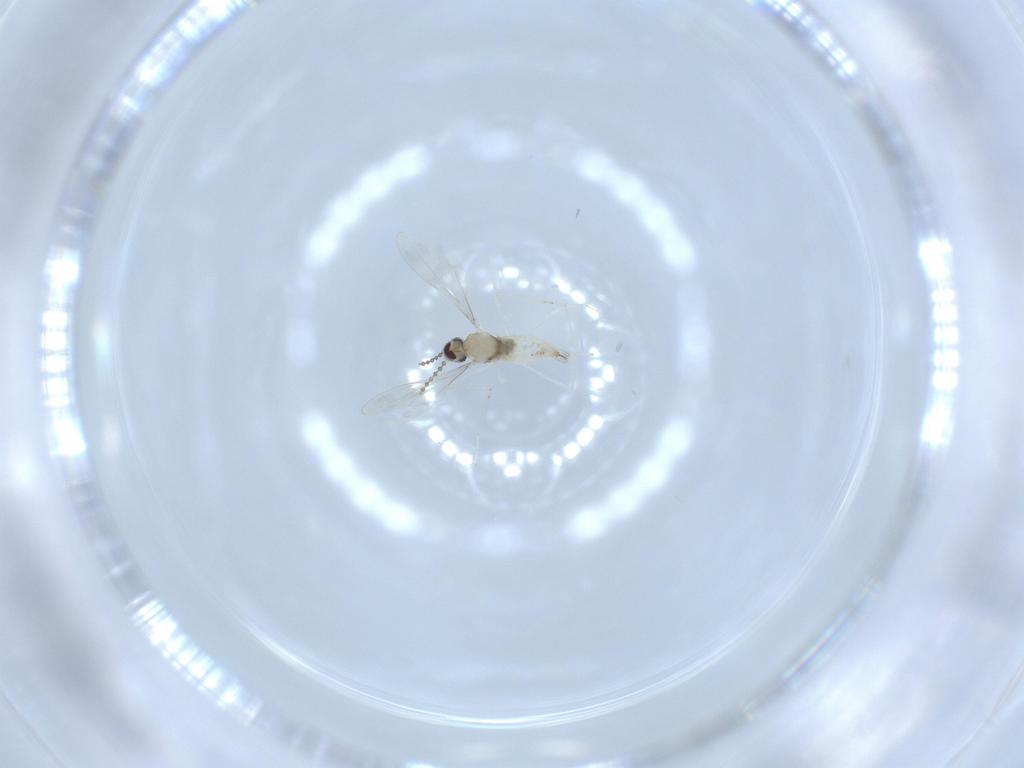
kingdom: Animalia
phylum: Arthropoda
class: Insecta
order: Diptera
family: Cecidomyiidae
